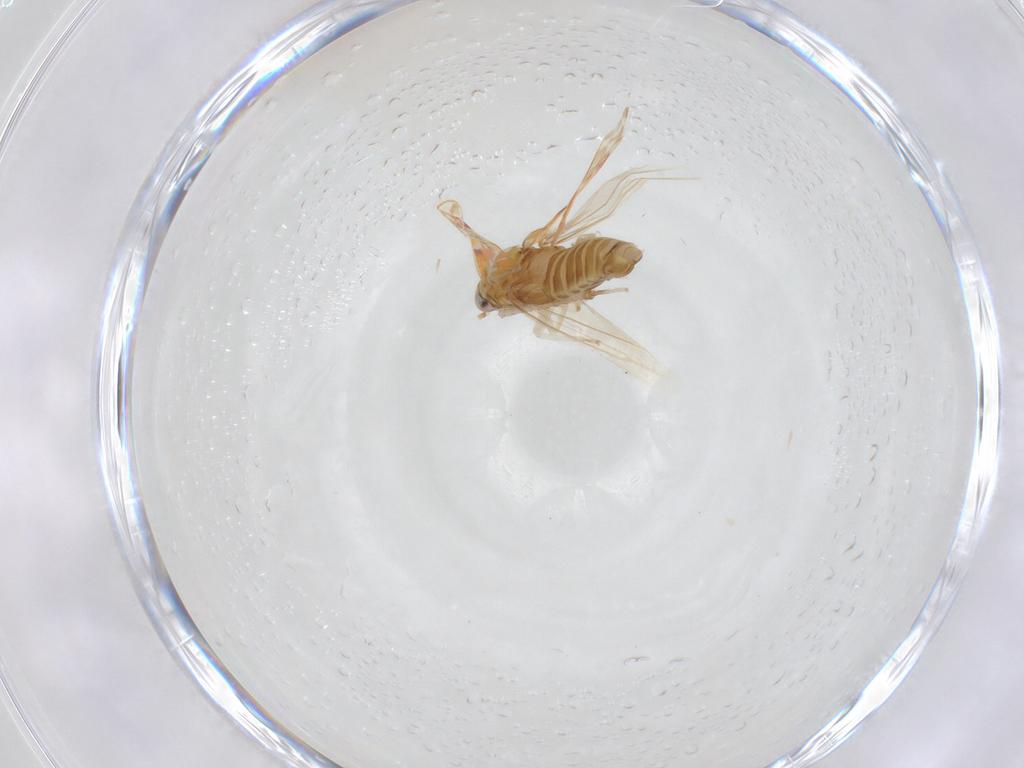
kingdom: Animalia
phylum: Arthropoda
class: Insecta
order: Hemiptera
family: Cicadellidae
